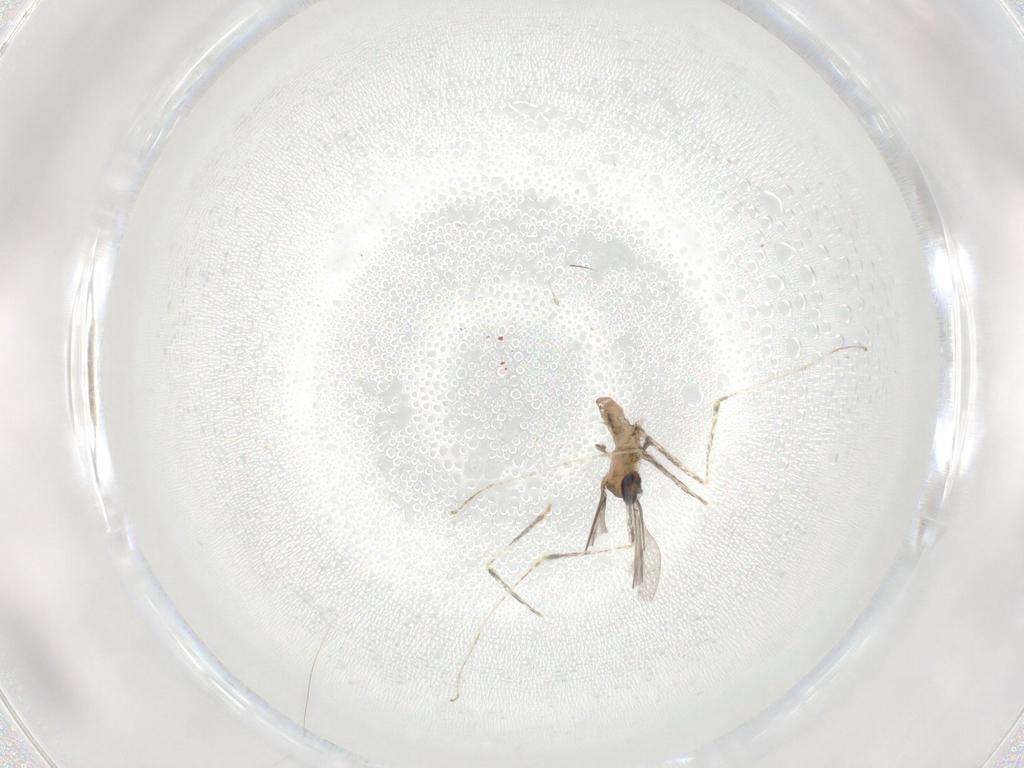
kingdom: Animalia
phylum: Arthropoda
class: Insecta
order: Diptera
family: Cecidomyiidae
